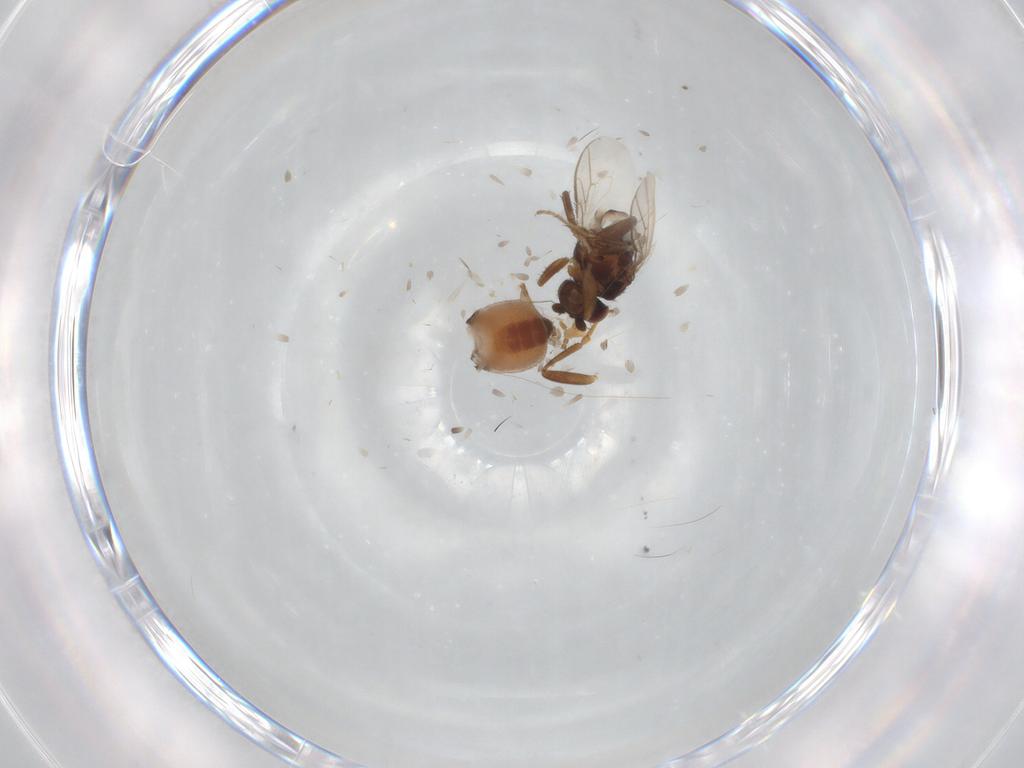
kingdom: Animalia
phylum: Arthropoda
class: Insecta
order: Diptera
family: Sphaeroceridae
